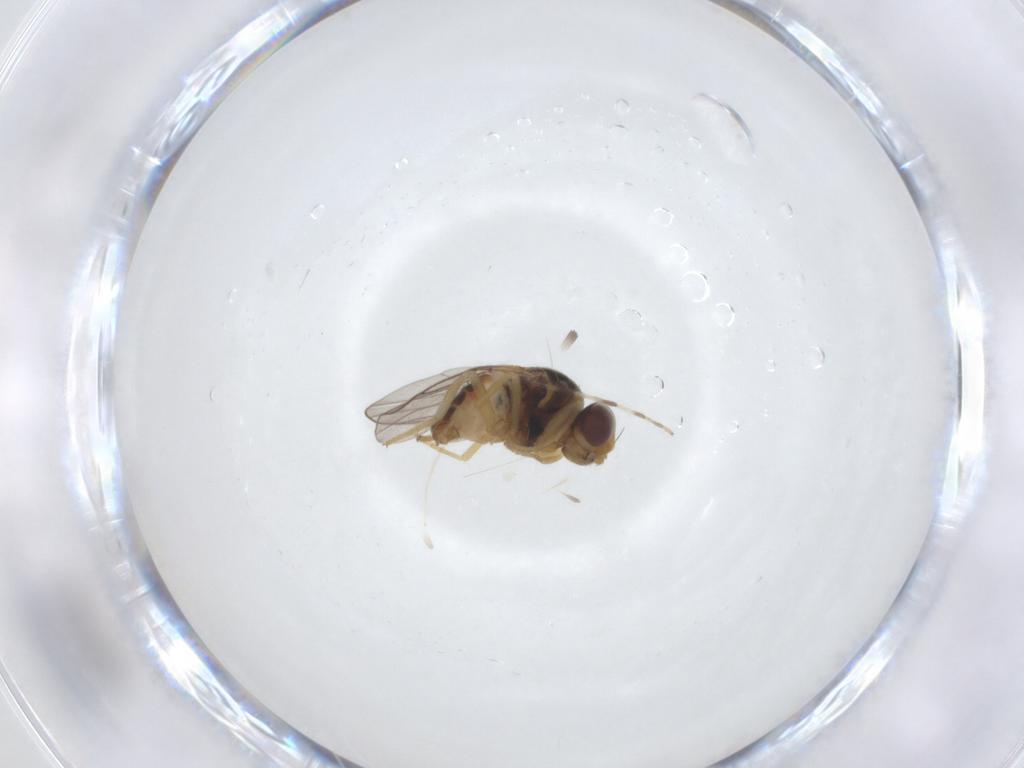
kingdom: Animalia
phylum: Arthropoda
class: Insecta
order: Diptera
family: Chloropidae
